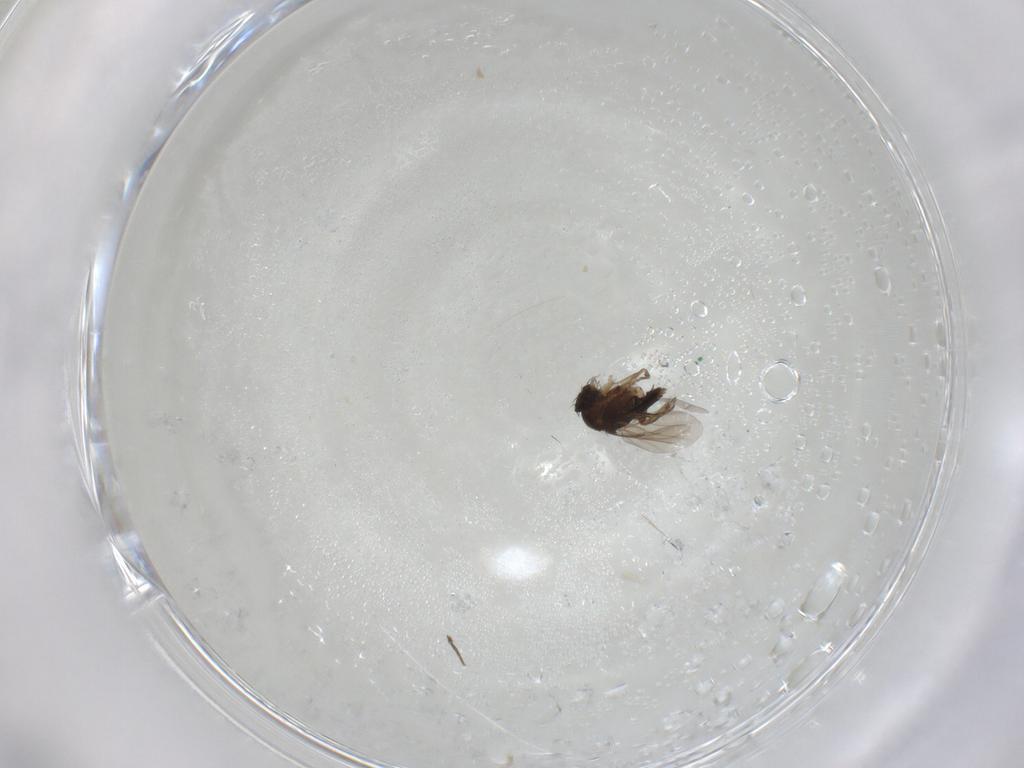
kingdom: Animalia
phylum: Arthropoda
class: Insecta
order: Diptera
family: Phoridae
